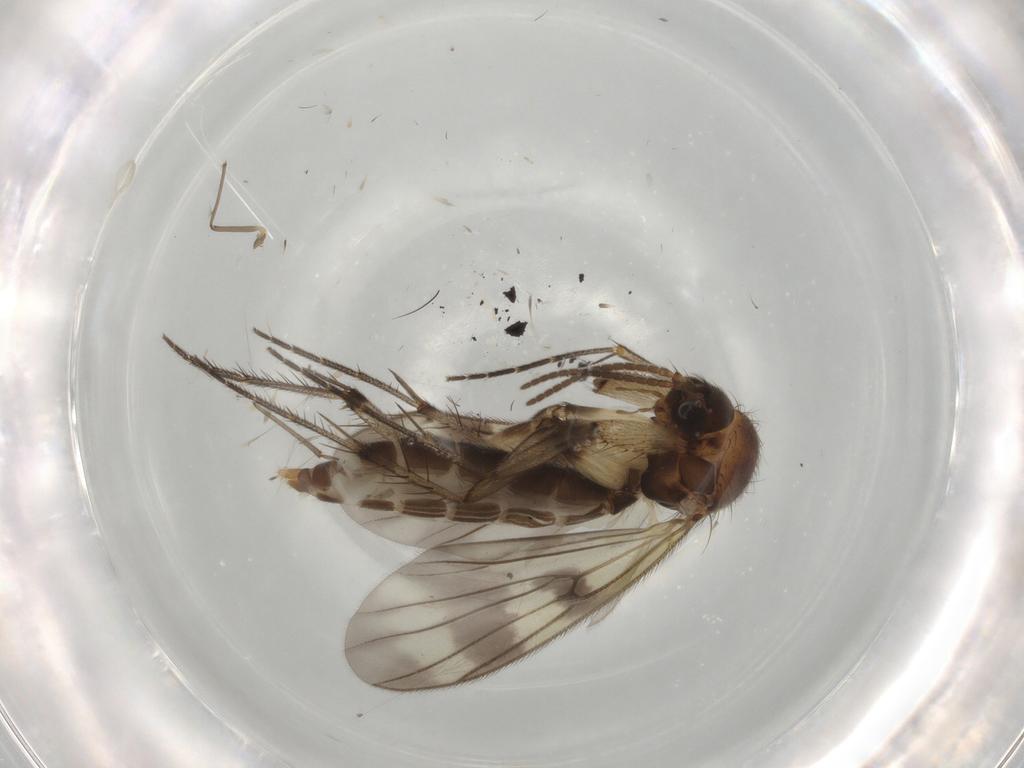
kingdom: Animalia
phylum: Arthropoda
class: Insecta
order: Diptera
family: Mycetophilidae
